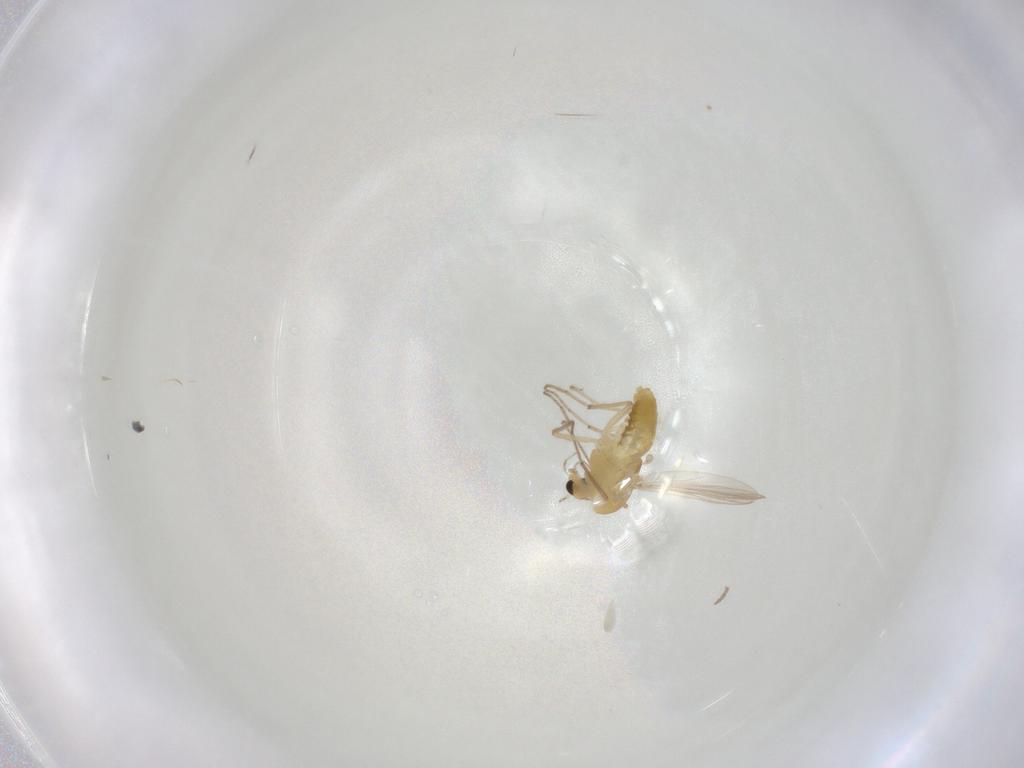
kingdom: Animalia
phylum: Arthropoda
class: Insecta
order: Diptera
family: Chironomidae
